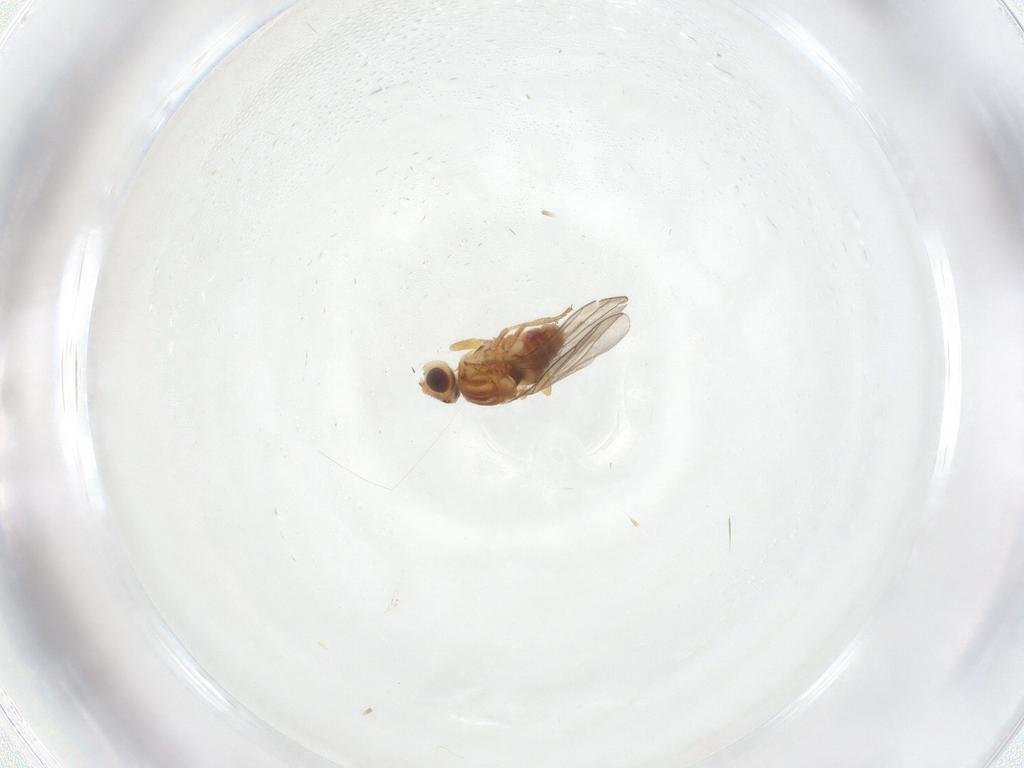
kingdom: Animalia
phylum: Arthropoda
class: Insecta
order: Diptera
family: Chloropidae
